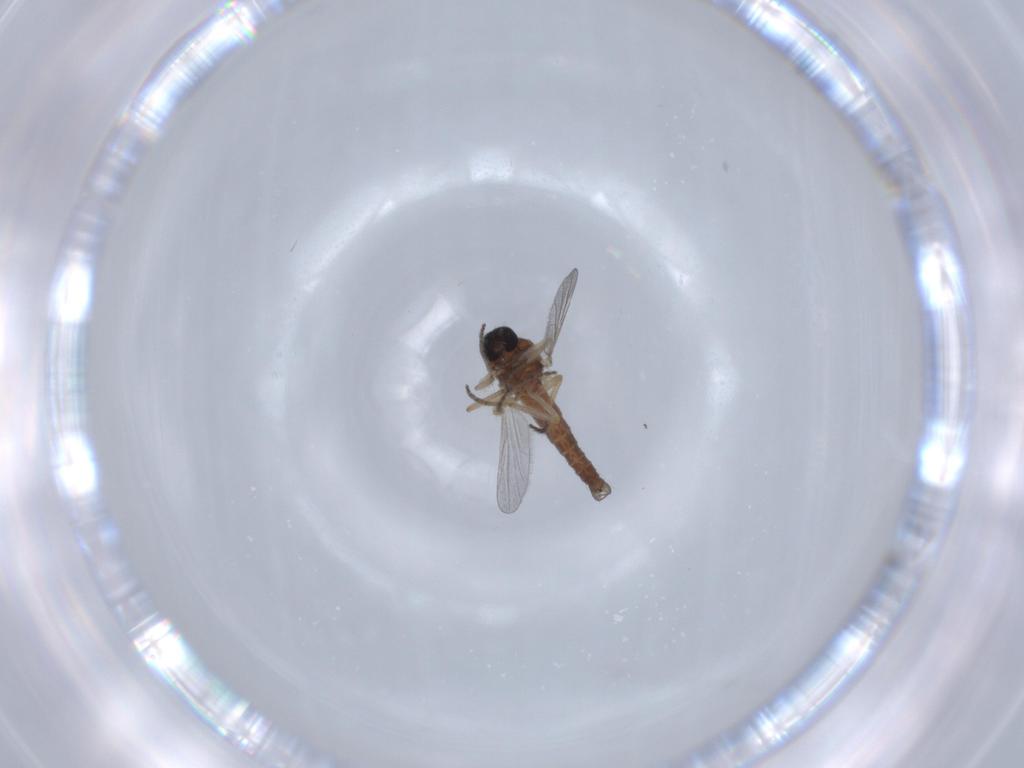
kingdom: Animalia
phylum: Arthropoda
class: Insecta
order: Diptera
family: Ceratopogonidae
